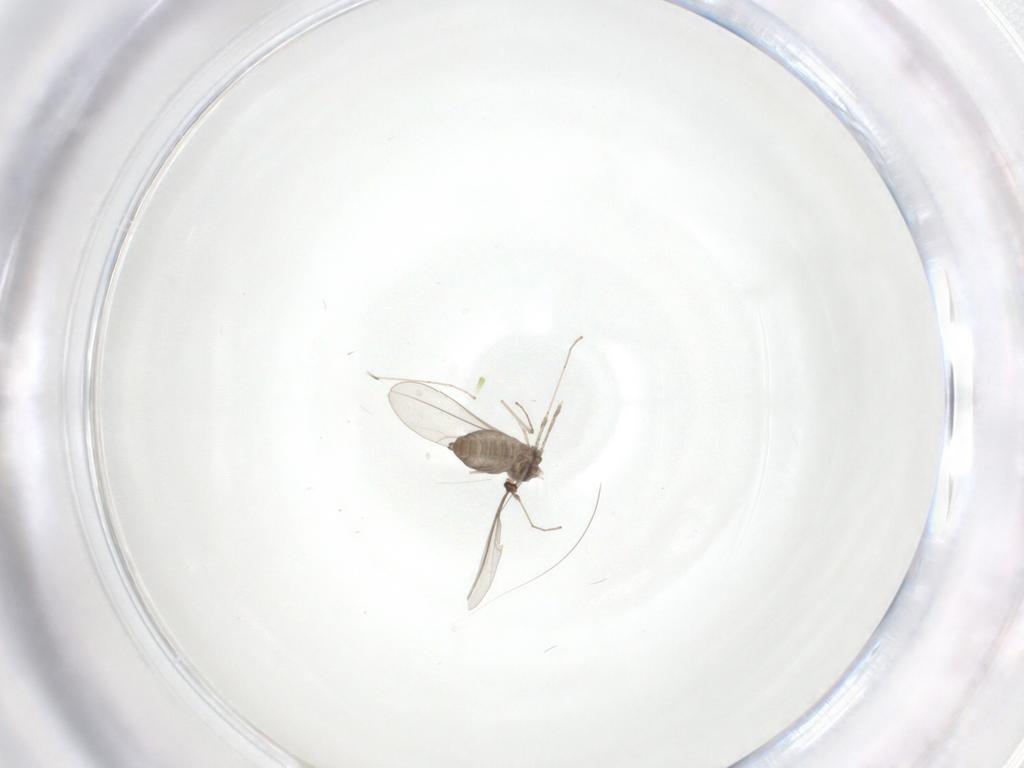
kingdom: Animalia
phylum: Arthropoda
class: Insecta
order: Diptera
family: Cecidomyiidae
